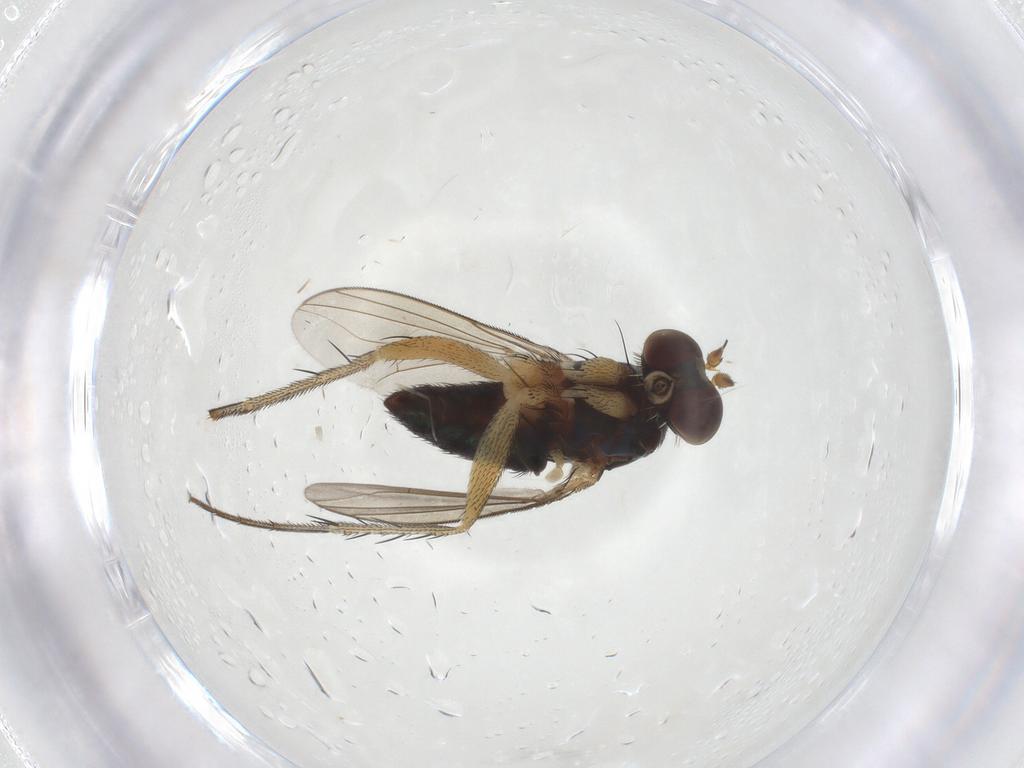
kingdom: Animalia
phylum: Arthropoda
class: Insecta
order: Diptera
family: Dolichopodidae
